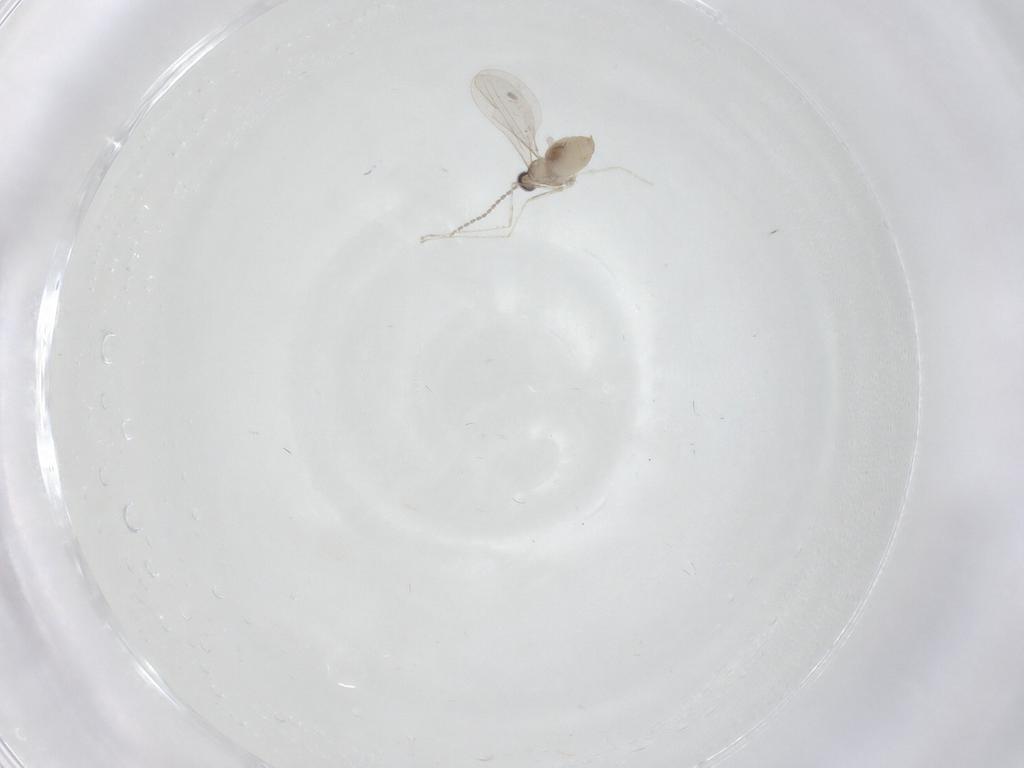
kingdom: Animalia
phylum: Arthropoda
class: Insecta
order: Diptera
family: Cecidomyiidae
